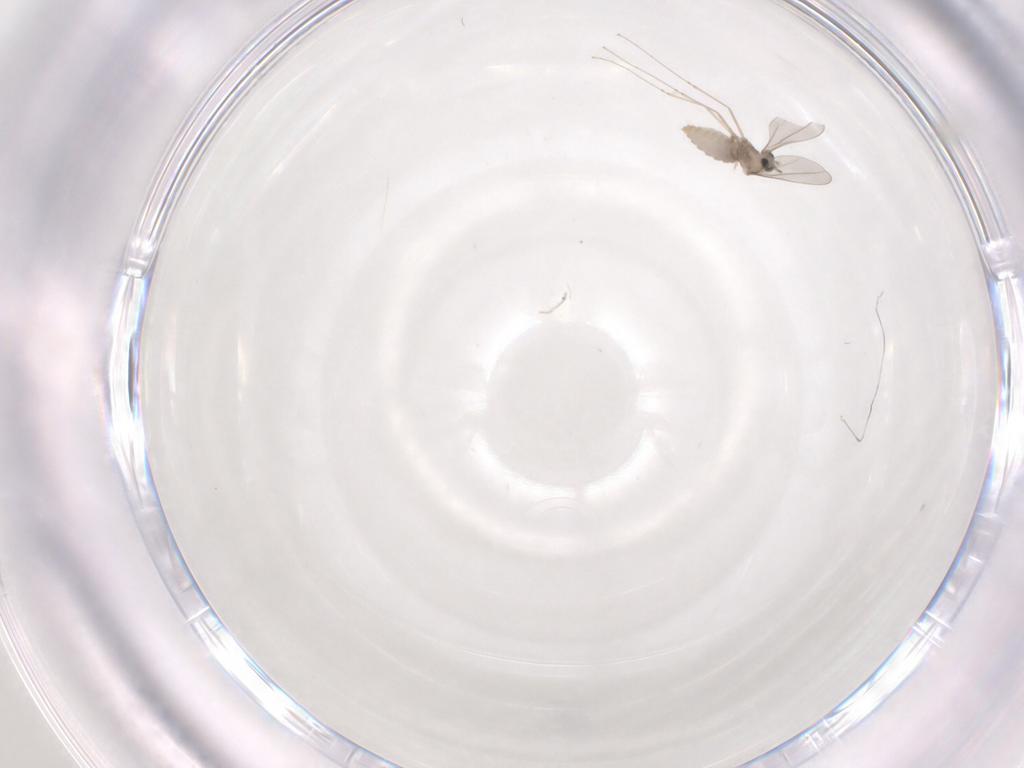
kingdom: Animalia
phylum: Arthropoda
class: Insecta
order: Diptera
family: Cecidomyiidae
